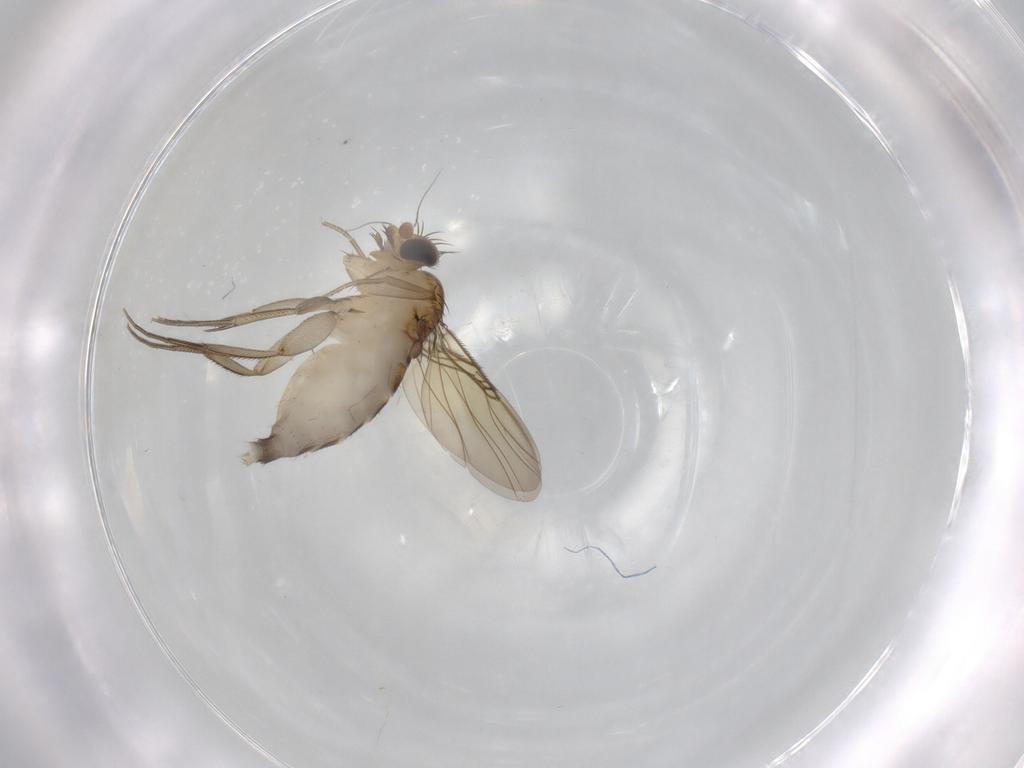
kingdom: Animalia
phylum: Arthropoda
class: Insecta
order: Diptera
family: Phoridae
